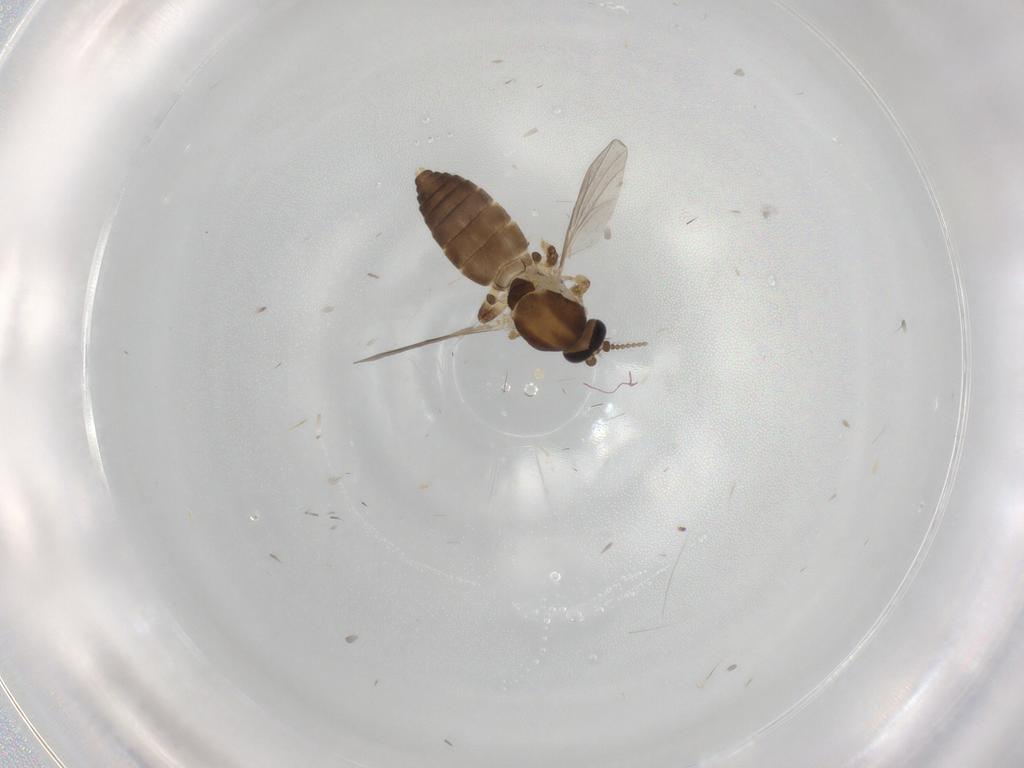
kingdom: Animalia
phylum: Arthropoda
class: Insecta
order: Diptera
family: Ceratopogonidae
